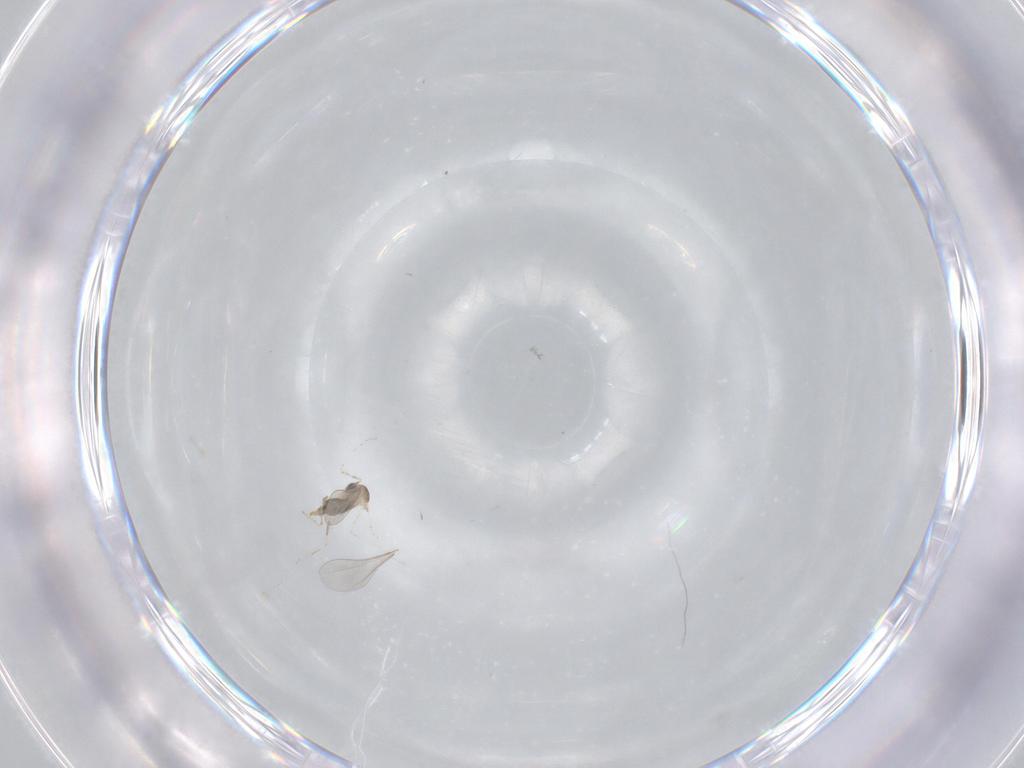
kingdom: Animalia
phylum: Arthropoda
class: Insecta
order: Diptera
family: Cecidomyiidae
